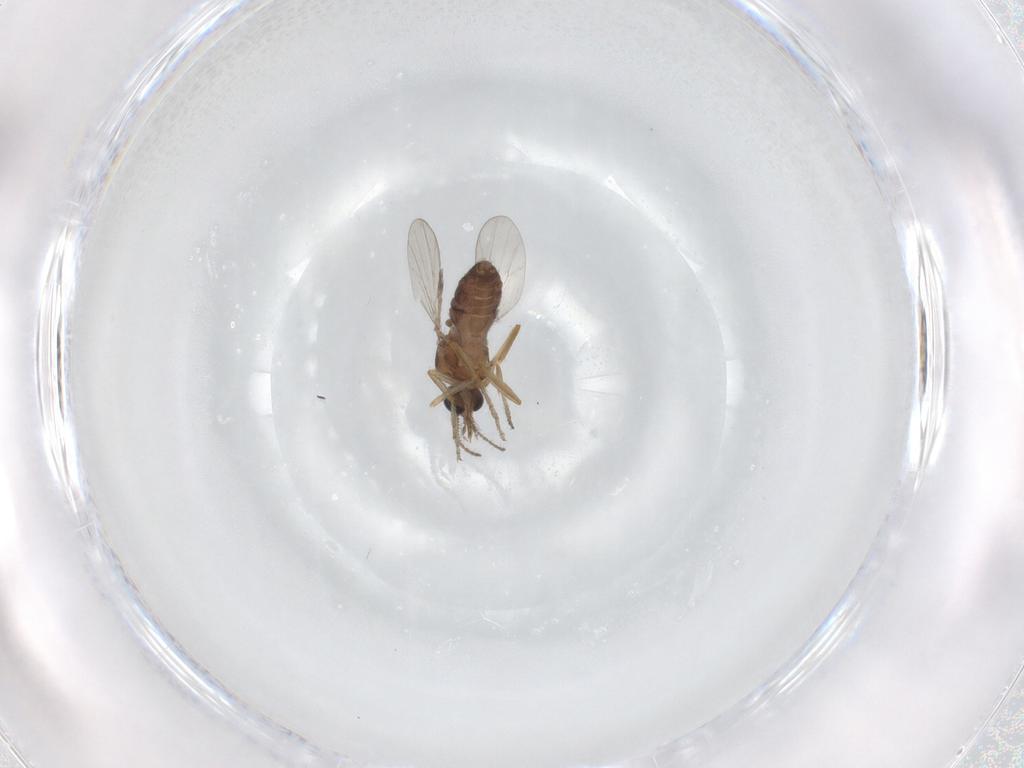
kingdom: Animalia
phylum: Arthropoda
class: Insecta
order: Diptera
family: Ceratopogonidae
